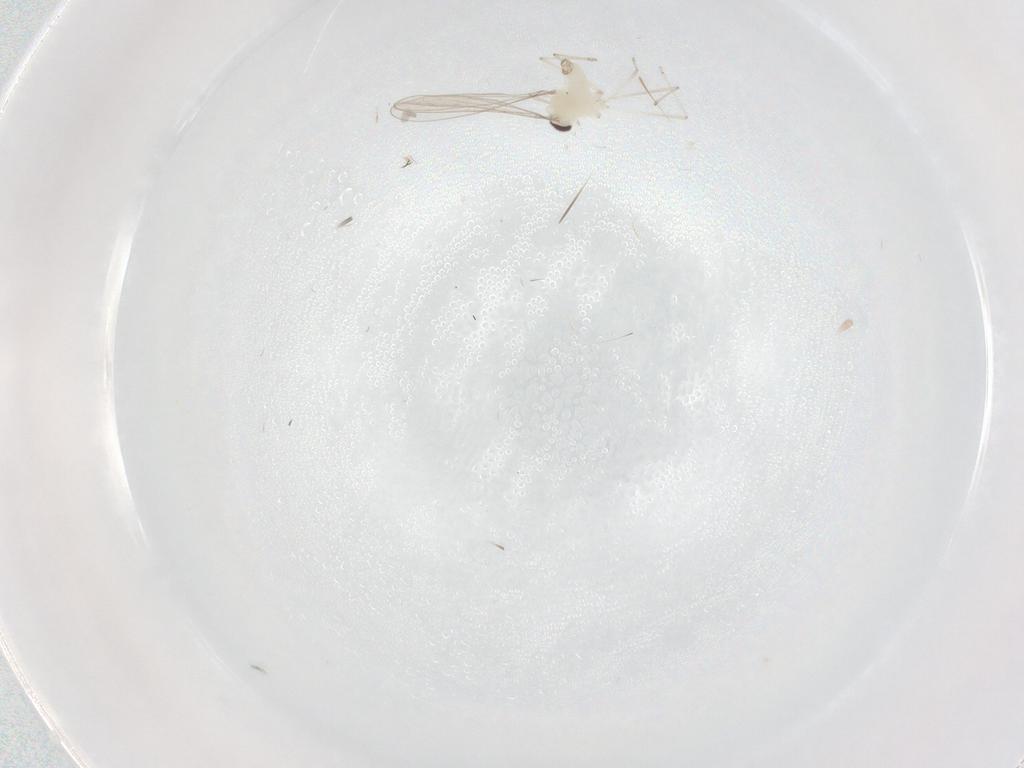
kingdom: Animalia
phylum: Arthropoda
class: Insecta
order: Diptera
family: Cecidomyiidae
